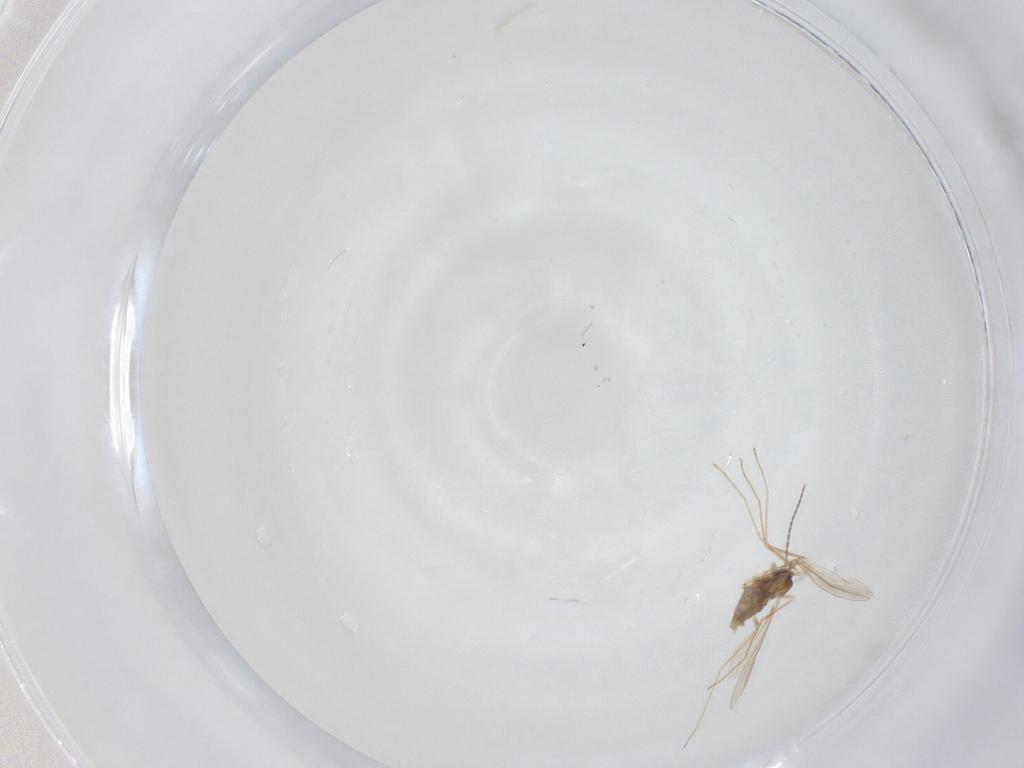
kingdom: Animalia
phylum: Arthropoda
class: Insecta
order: Diptera
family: Cecidomyiidae
